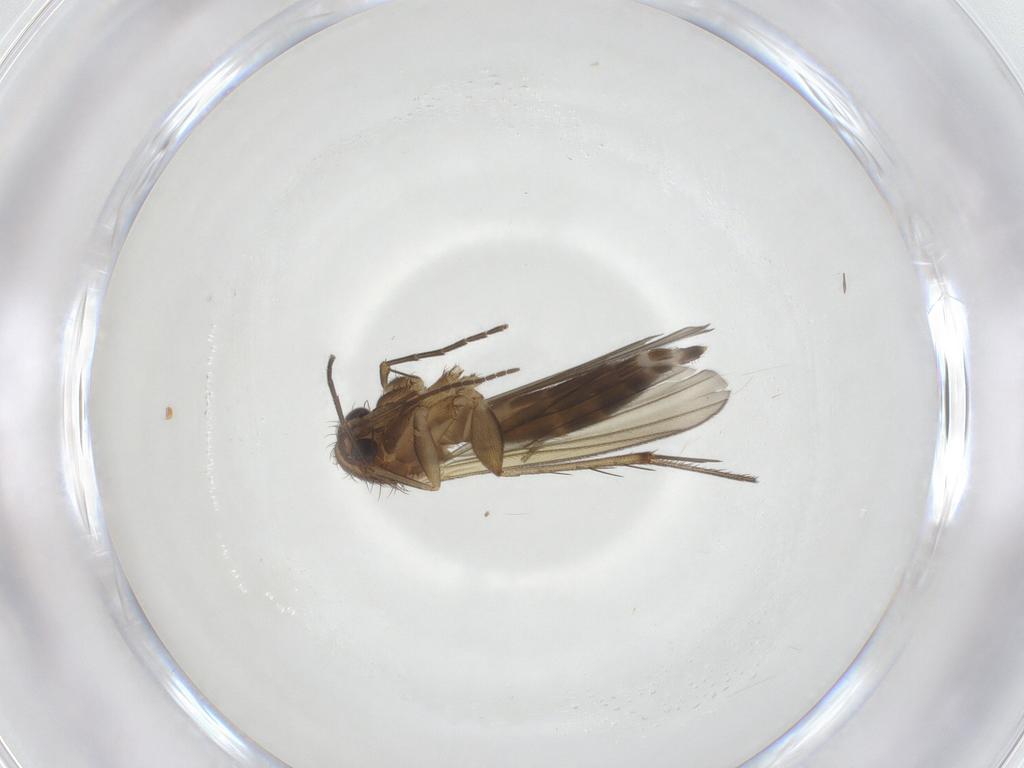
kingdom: Animalia
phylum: Arthropoda
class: Insecta
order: Diptera
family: Mycetophilidae
